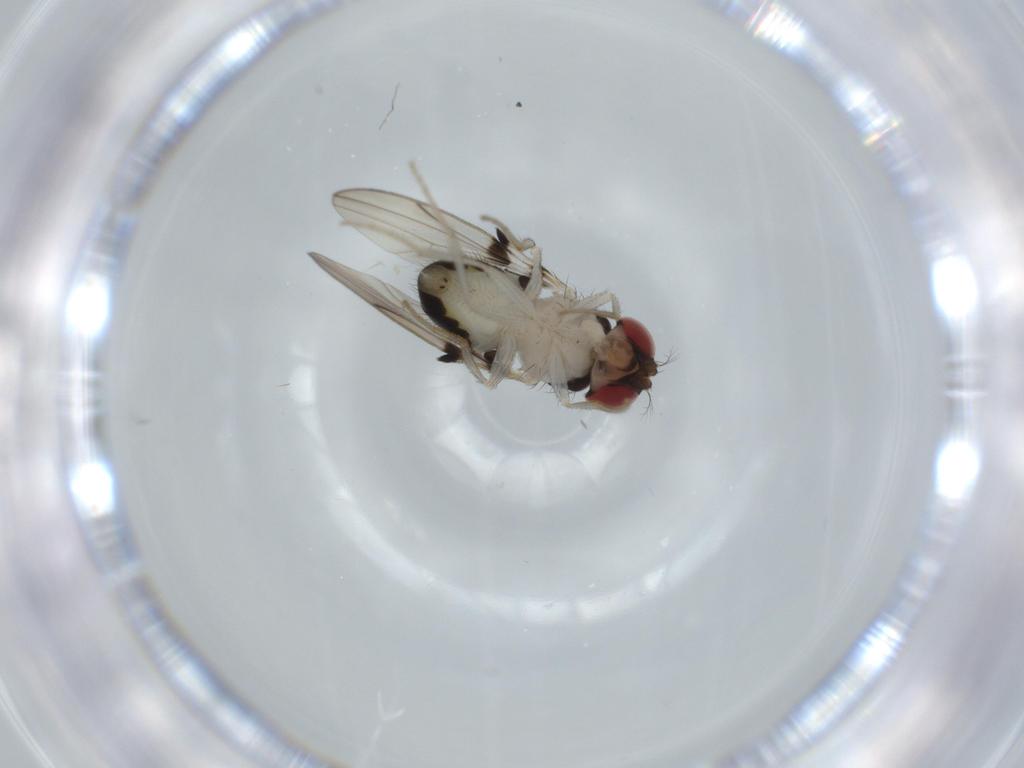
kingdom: Animalia
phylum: Arthropoda
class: Insecta
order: Diptera
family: Drosophilidae
